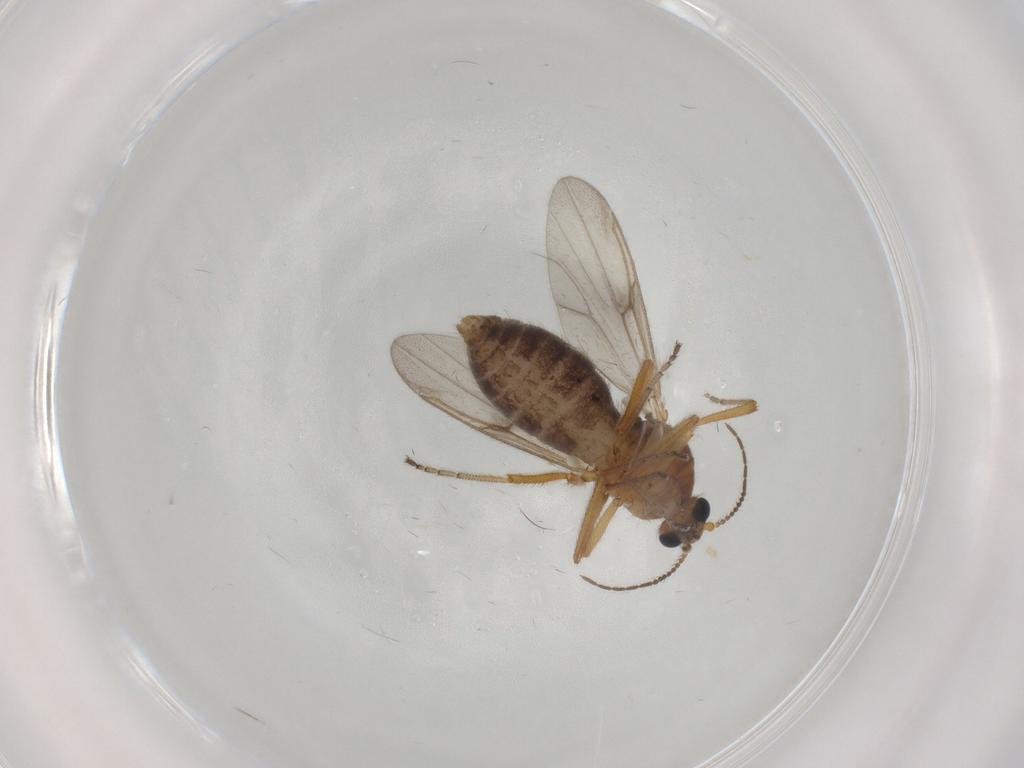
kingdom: Animalia
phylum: Arthropoda
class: Insecta
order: Diptera
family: Ceratopogonidae
